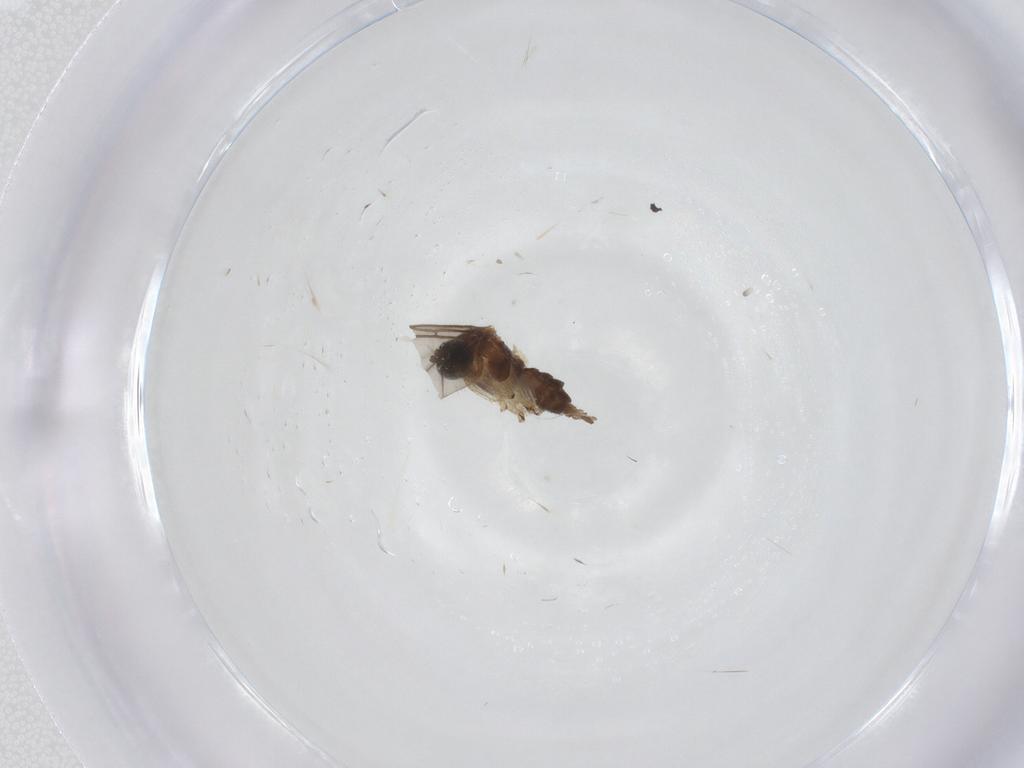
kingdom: Animalia
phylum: Arthropoda
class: Insecta
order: Diptera
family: Sciaridae
